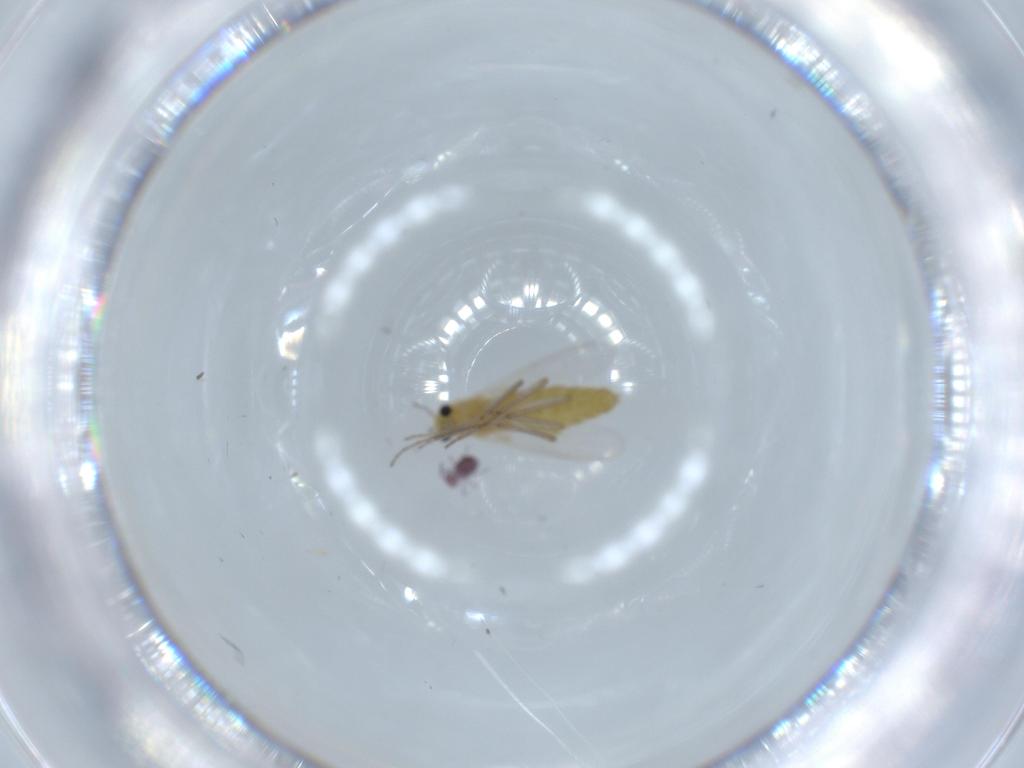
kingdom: Animalia
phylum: Arthropoda
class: Insecta
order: Diptera
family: Chironomidae
